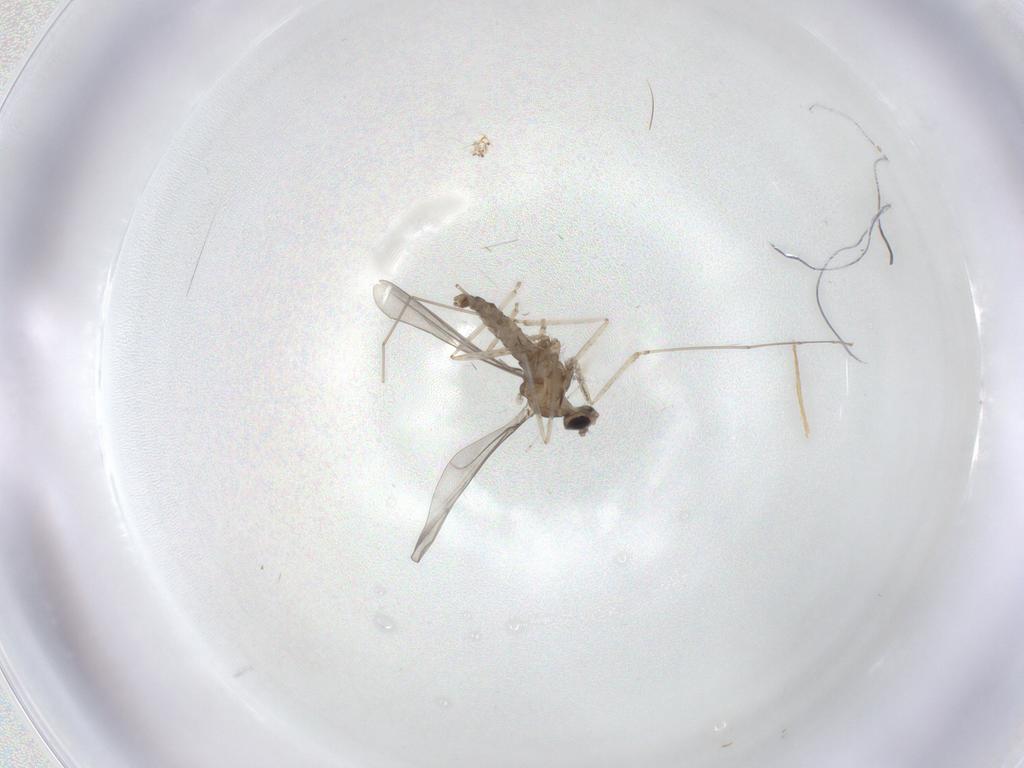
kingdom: Animalia
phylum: Arthropoda
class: Insecta
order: Diptera
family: Cecidomyiidae
